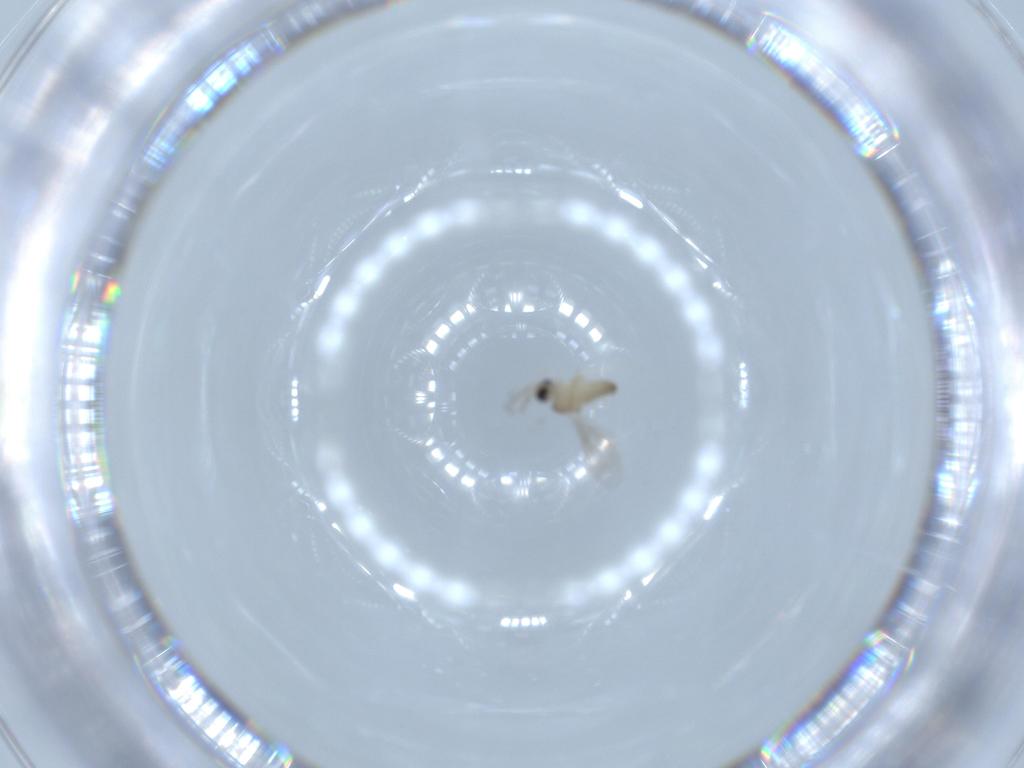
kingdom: Animalia
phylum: Arthropoda
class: Insecta
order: Diptera
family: Cecidomyiidae
